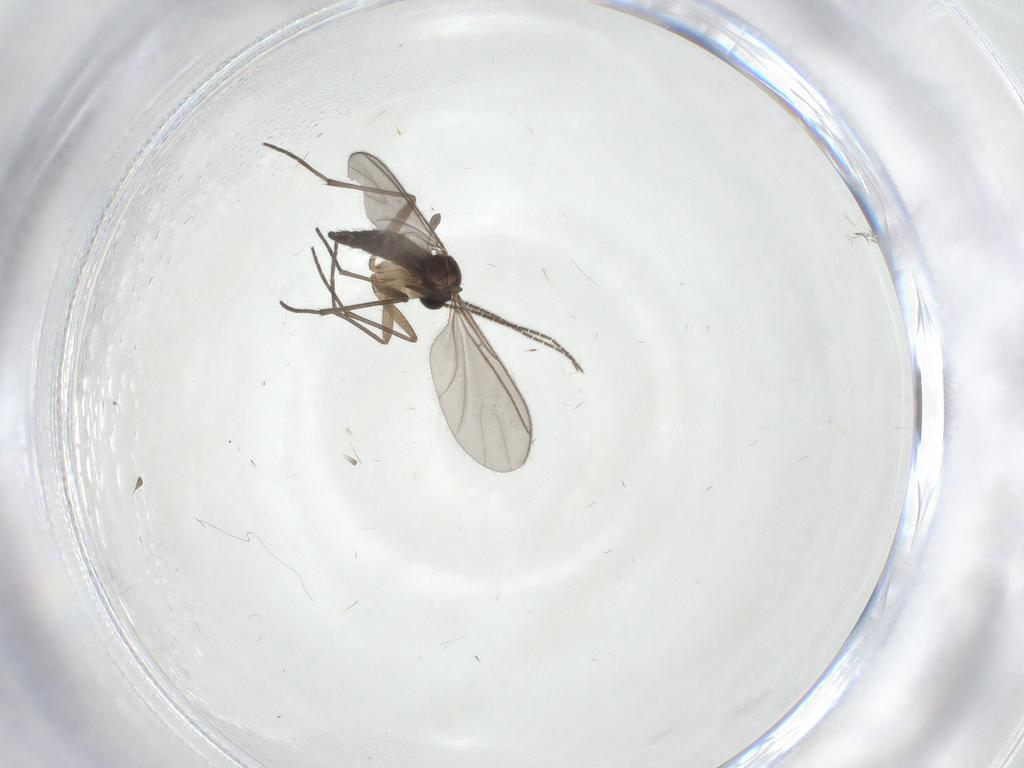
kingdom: Animalia
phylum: Arthropoda
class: Insecta
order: Diptera
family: Sciaridae
